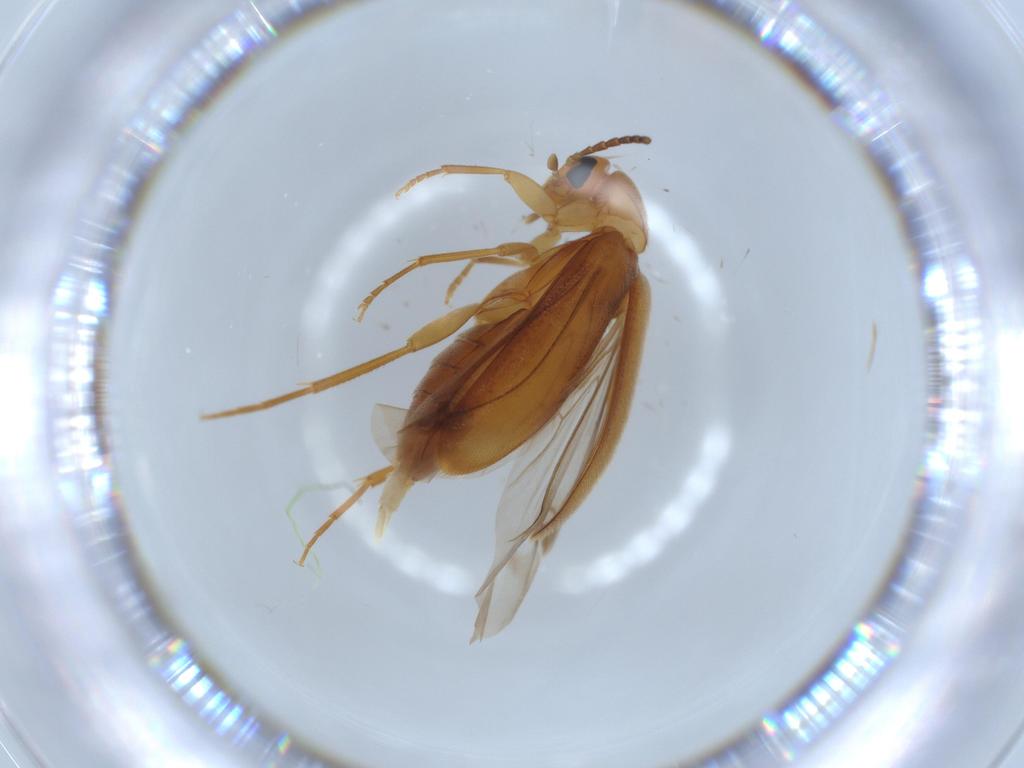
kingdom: Animalia
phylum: Arthropoda
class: Insecta
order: Coleoptera
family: Scraptiidae
